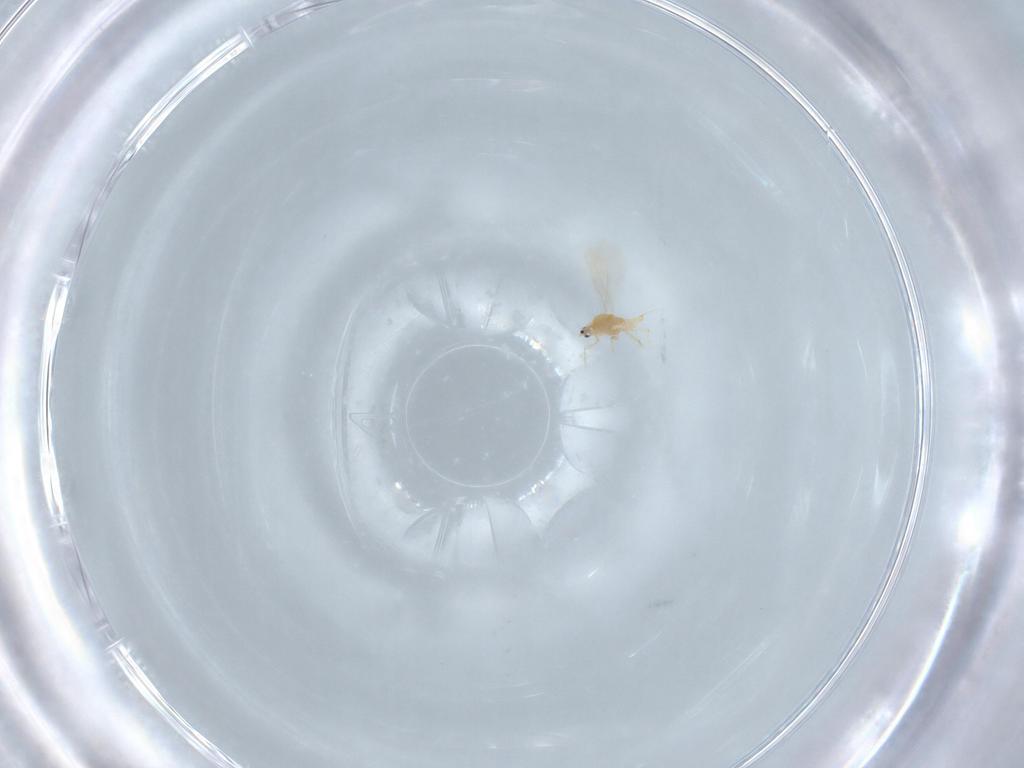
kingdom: Animalia
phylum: Arthropoda
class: Insecta
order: Hemiptera
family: Diaspididae
